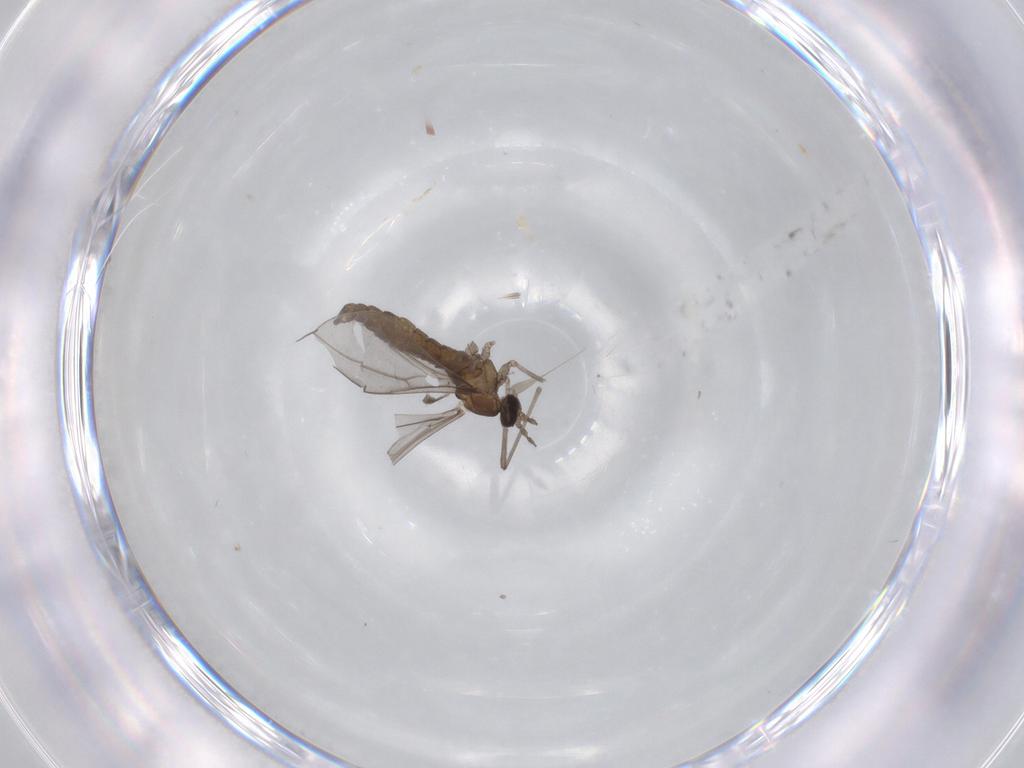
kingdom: Animalia
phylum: Arthropoda
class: Insecta
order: Diptera
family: Cecidomyiidae
